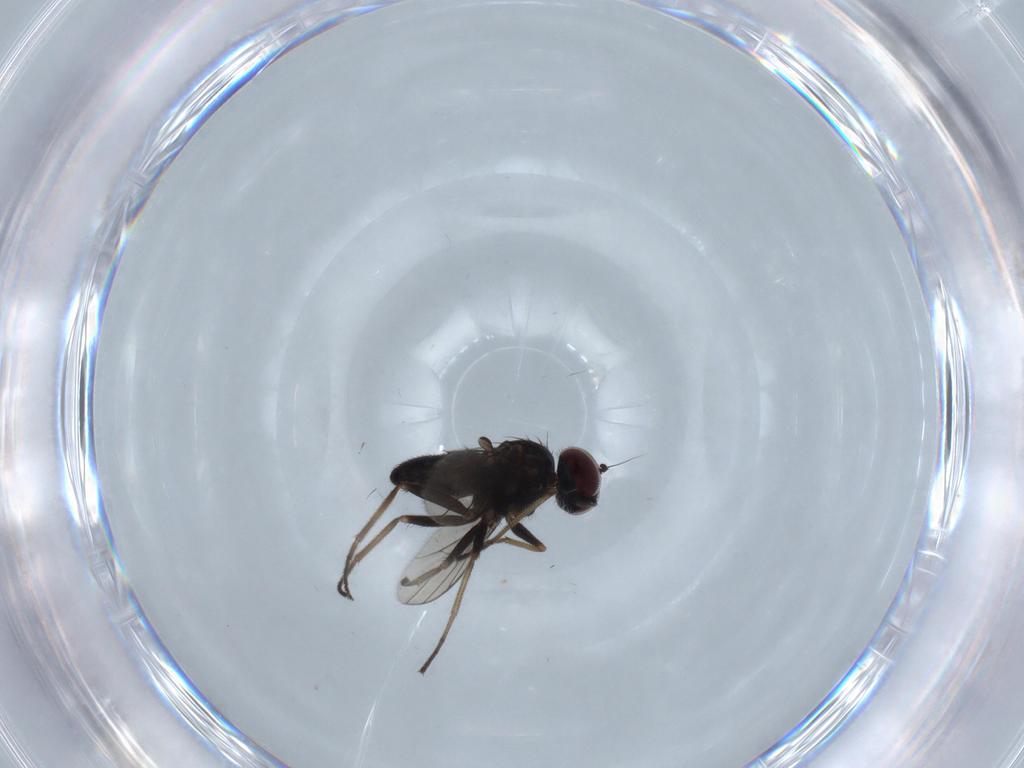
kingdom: Animalia
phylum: Arthropoda
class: Insecta
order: Diptera
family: Dolichopodidae
